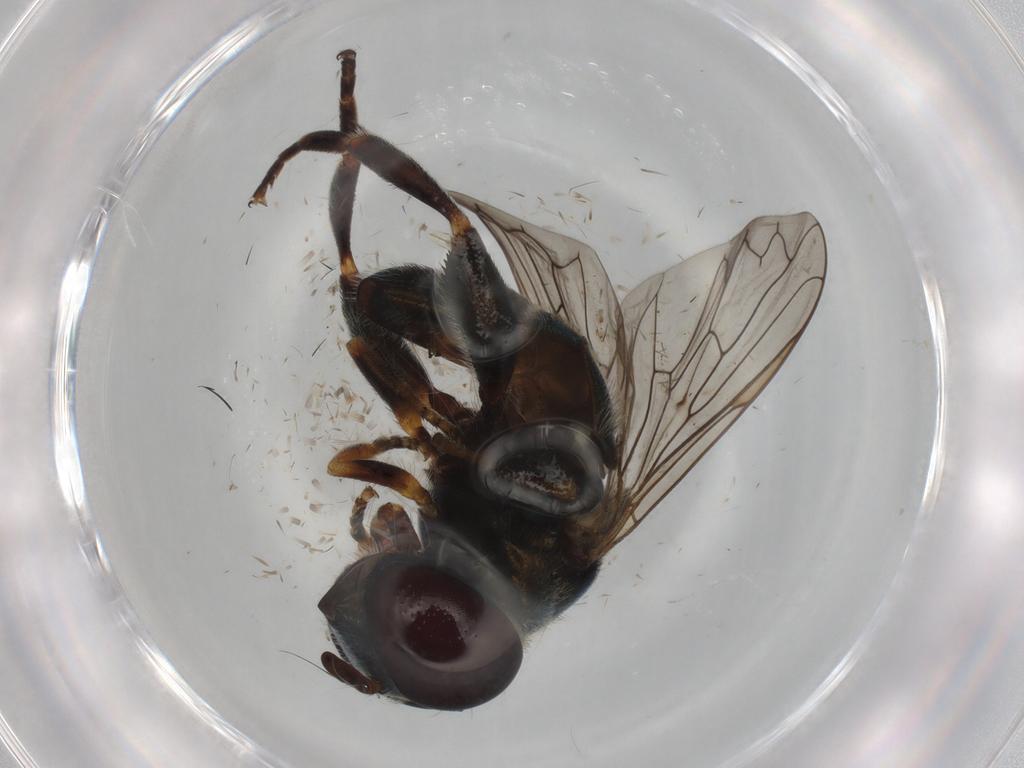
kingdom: Animalia
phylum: Arthropoda
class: Insecta
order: Diptera
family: Syrphidae
